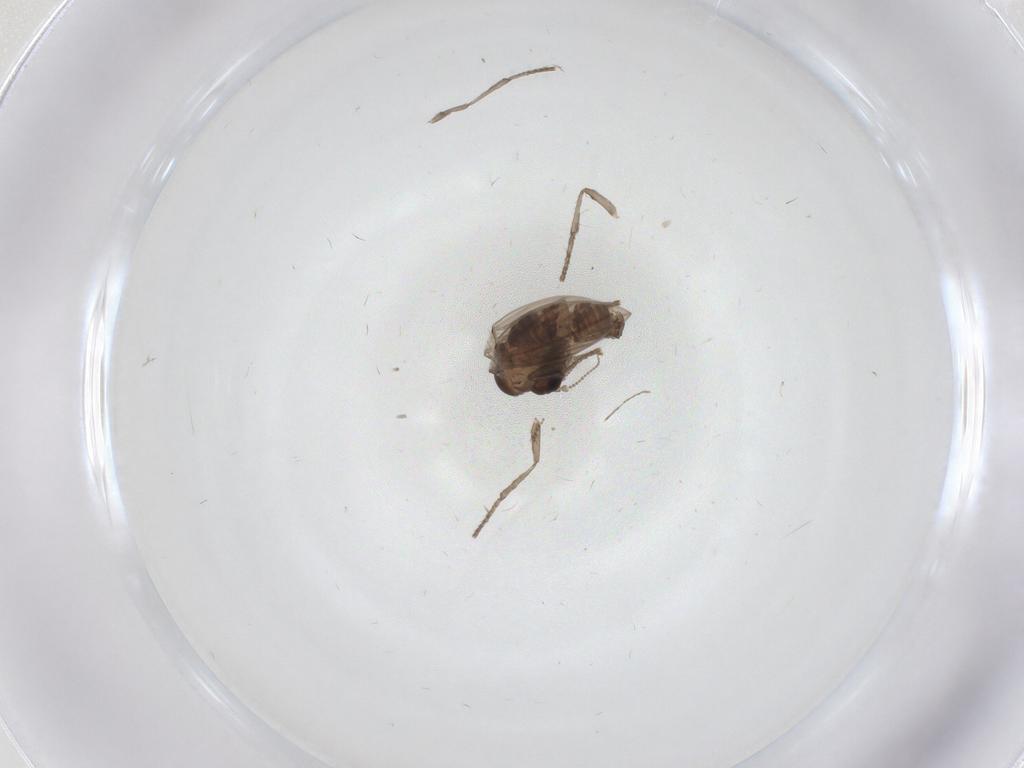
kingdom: Animalia
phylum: Arthropoda
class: Insecta
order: Diptera
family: Psychodidae
